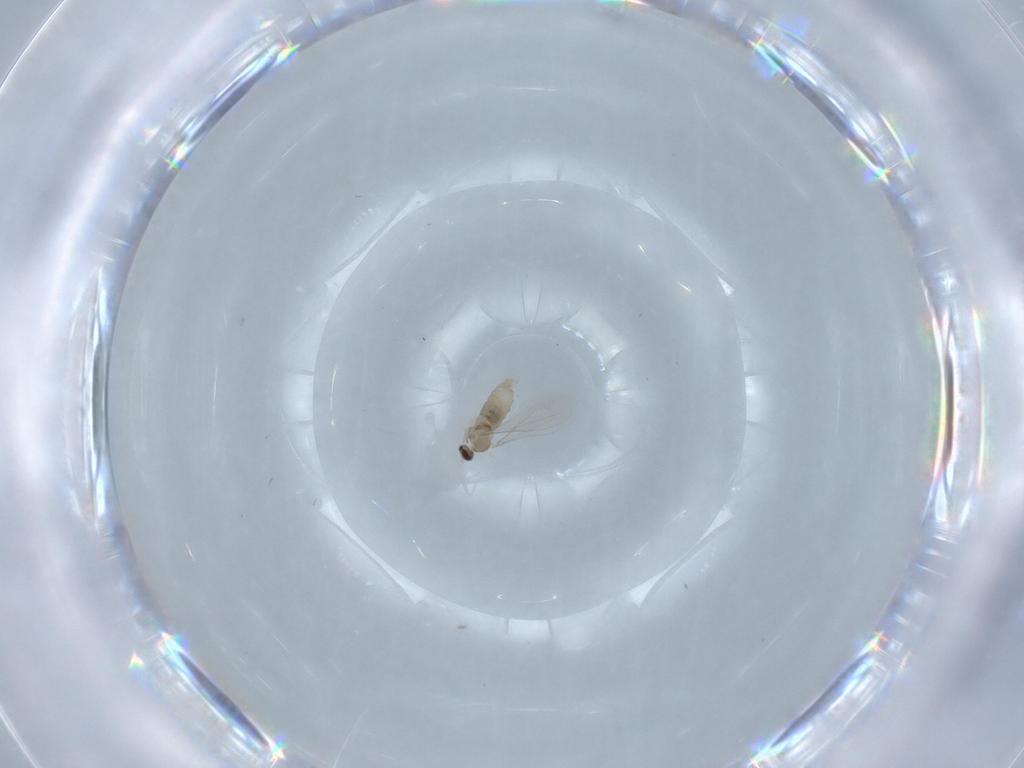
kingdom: Animalia
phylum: Arthropoda
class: Insecta
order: Diptera
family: Cecidomyiidae
